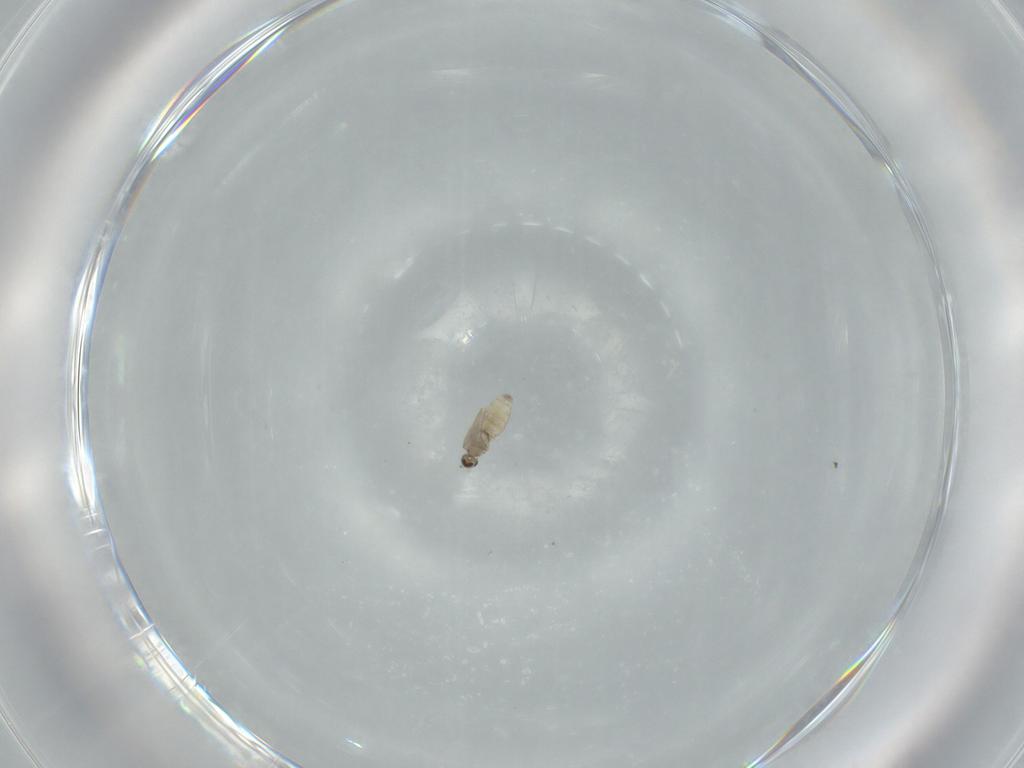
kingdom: Animalia
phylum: Arthropoda
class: Insecta
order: Diptera
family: Cecidomyiidae
